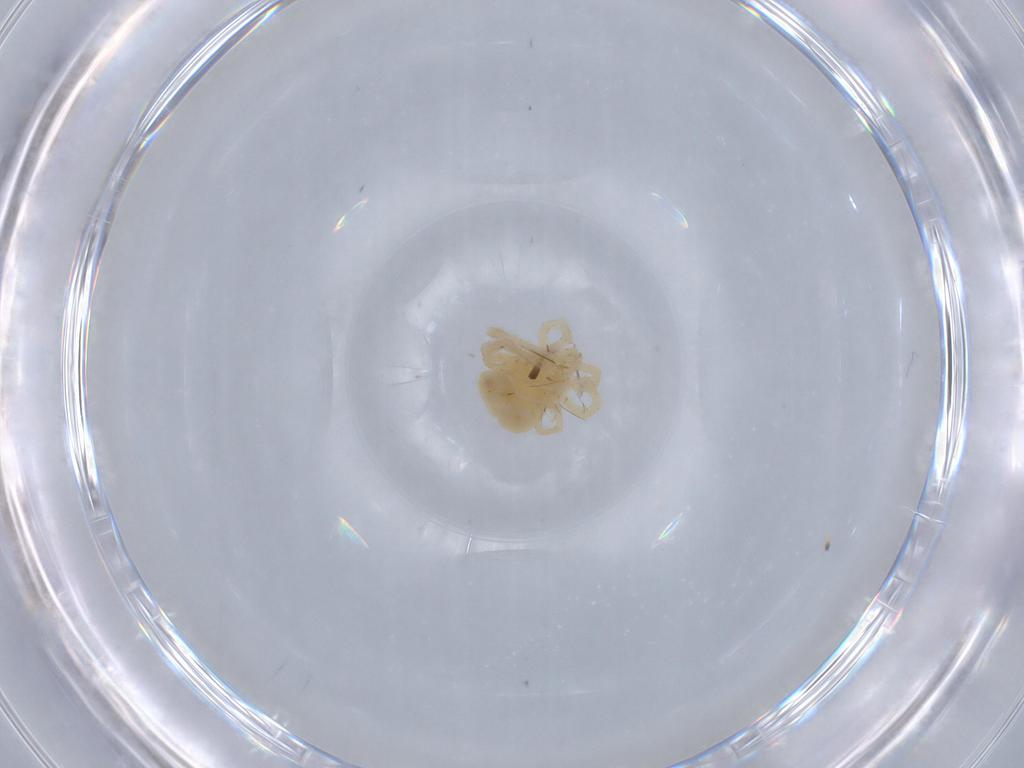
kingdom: Animalia
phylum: Arthropoda
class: Arachnida
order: Trombidiformes
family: Anystidae
